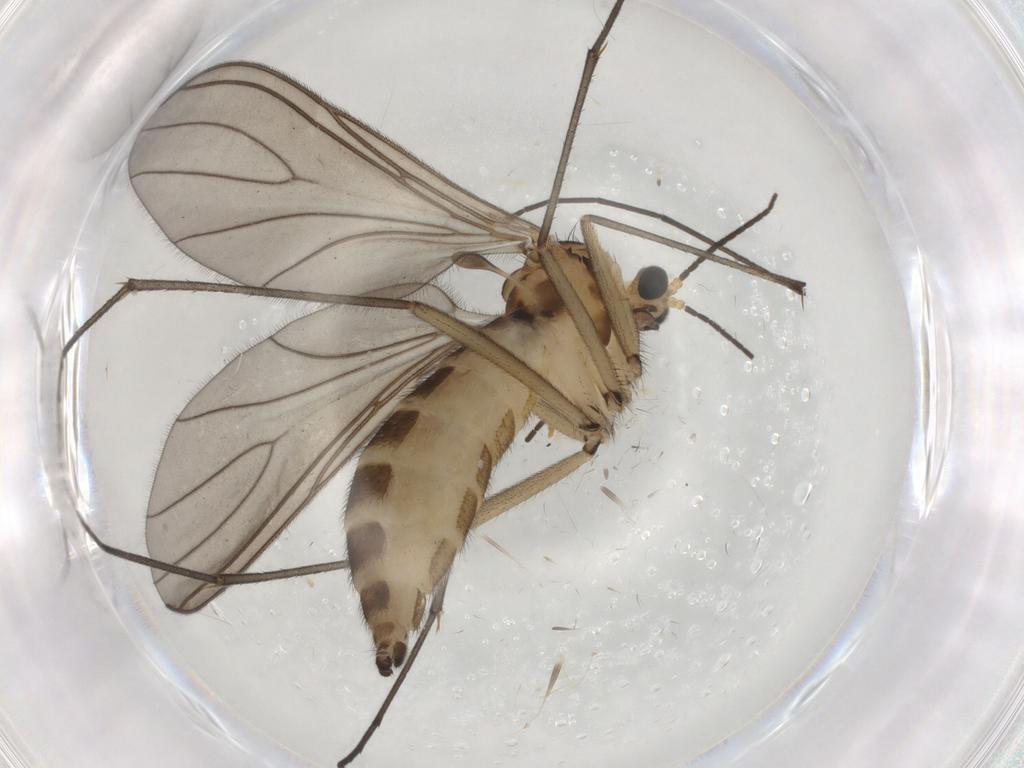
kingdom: Animalia
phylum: Arthropoda
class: Insecta
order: Diptera
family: Sciaridae
